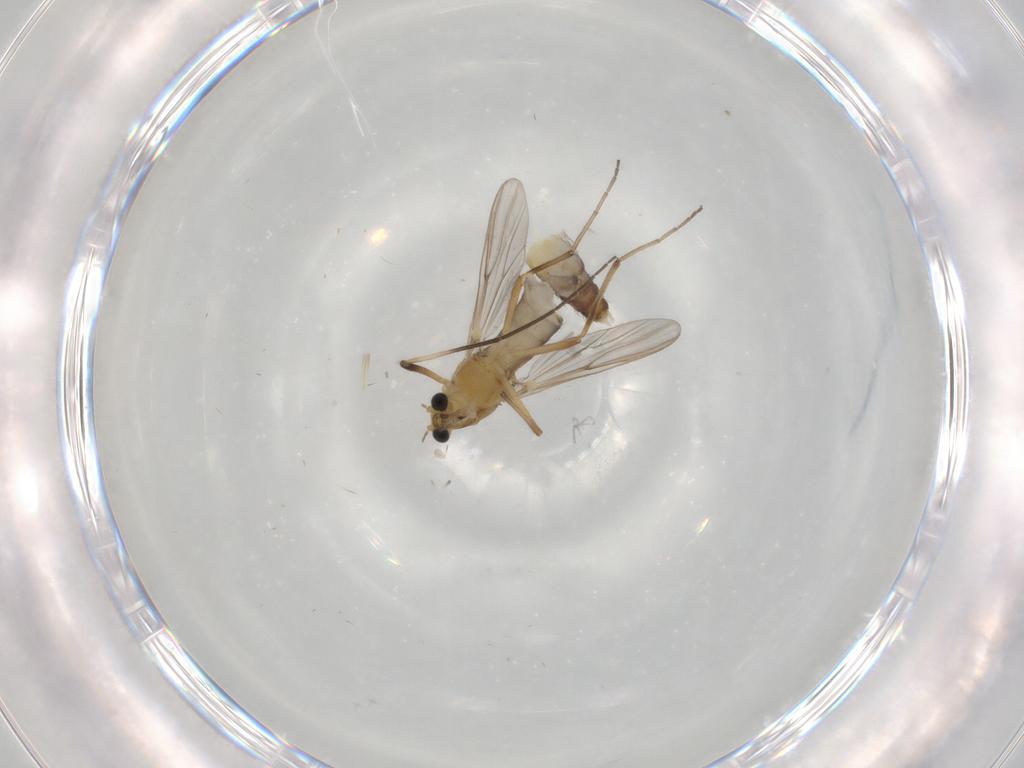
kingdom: Animalia
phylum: Arthropoda
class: Insecta
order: Diptera
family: Cecidomyiidae
